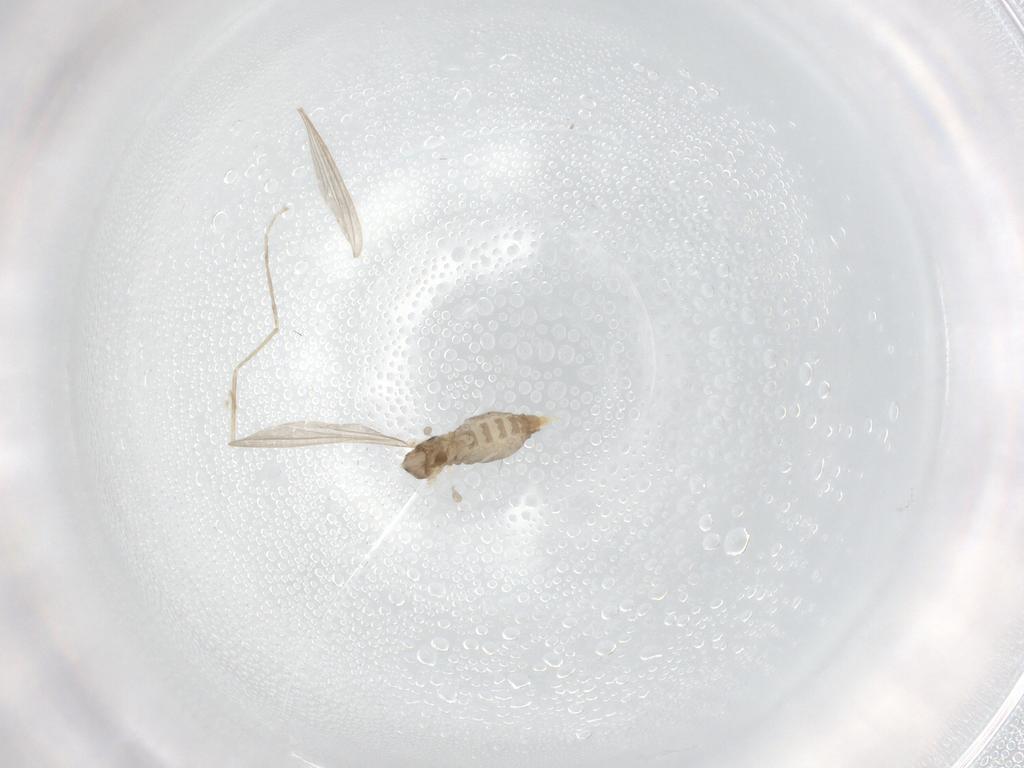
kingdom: Animalia
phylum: Arthropoda
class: Insecta
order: Diptera
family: Cecidomyiidae
